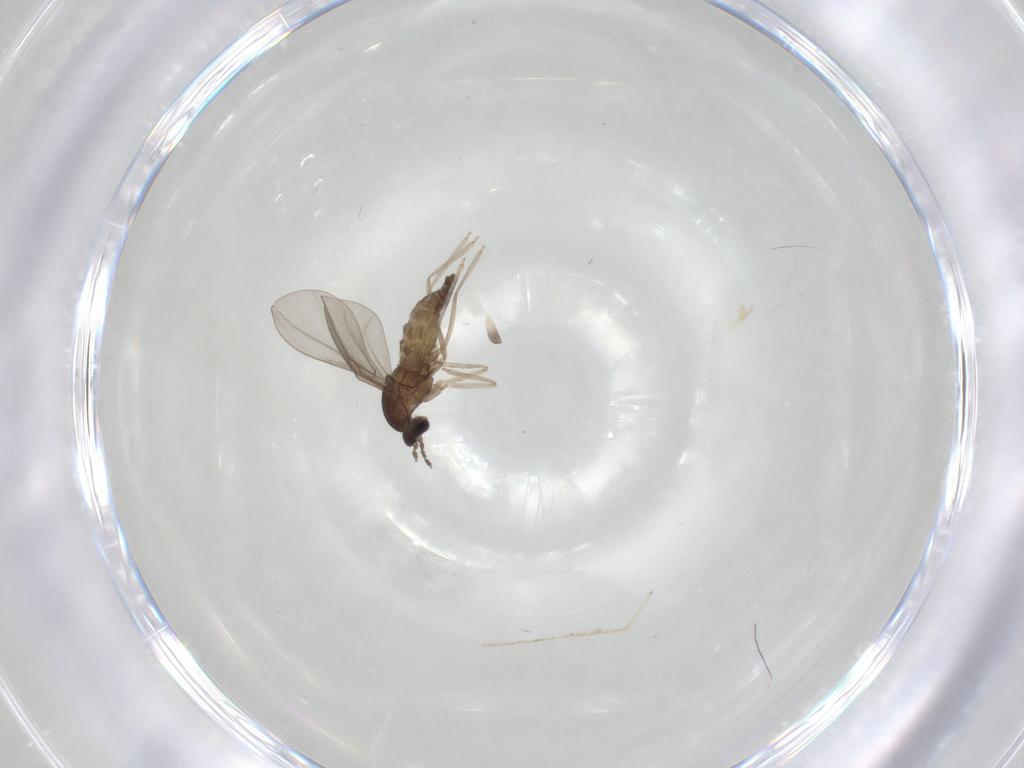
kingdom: Animalia
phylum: Arthropoda
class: Insecta
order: Diptera
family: Cecidomyiidae
